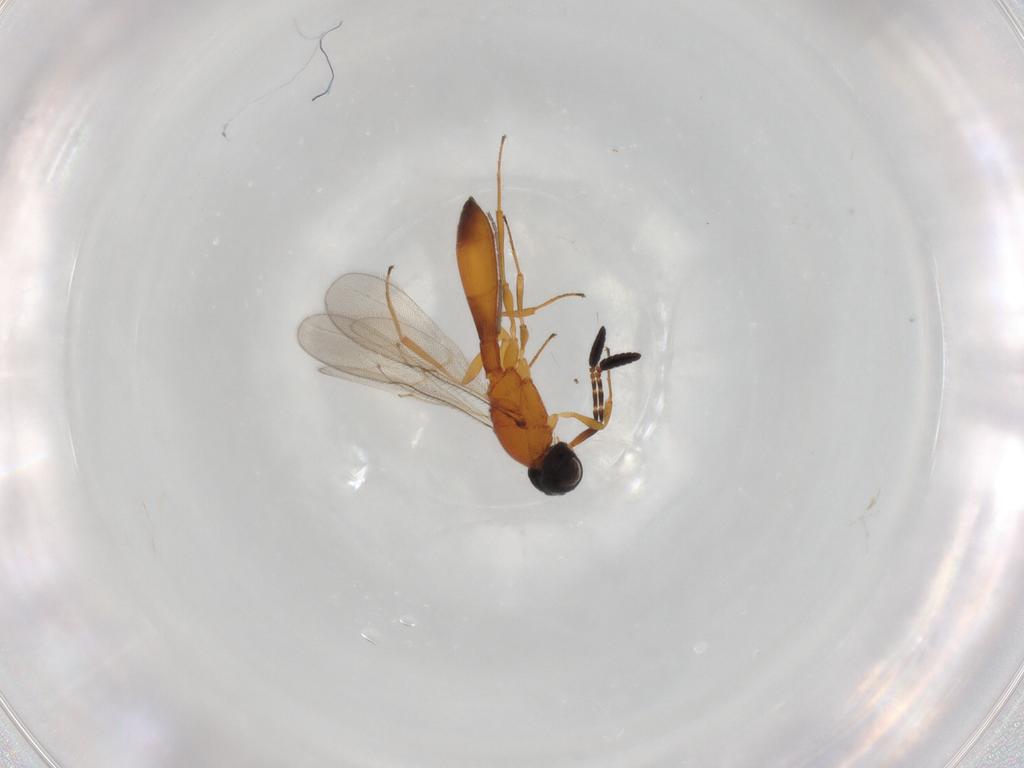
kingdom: Animalia
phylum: Arthropoda
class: Insecta
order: Hymenoptera
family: Scelionidae
